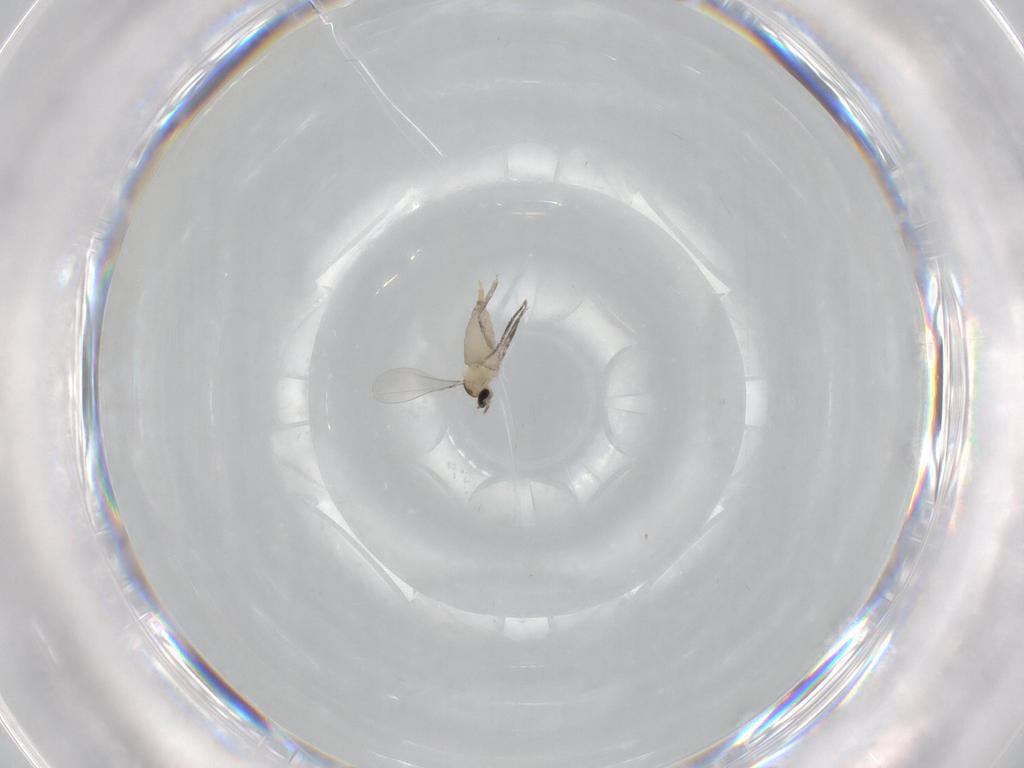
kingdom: Animalia
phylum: Arthropoda
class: Insecta
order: Diptera
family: Cecidomyiidae
